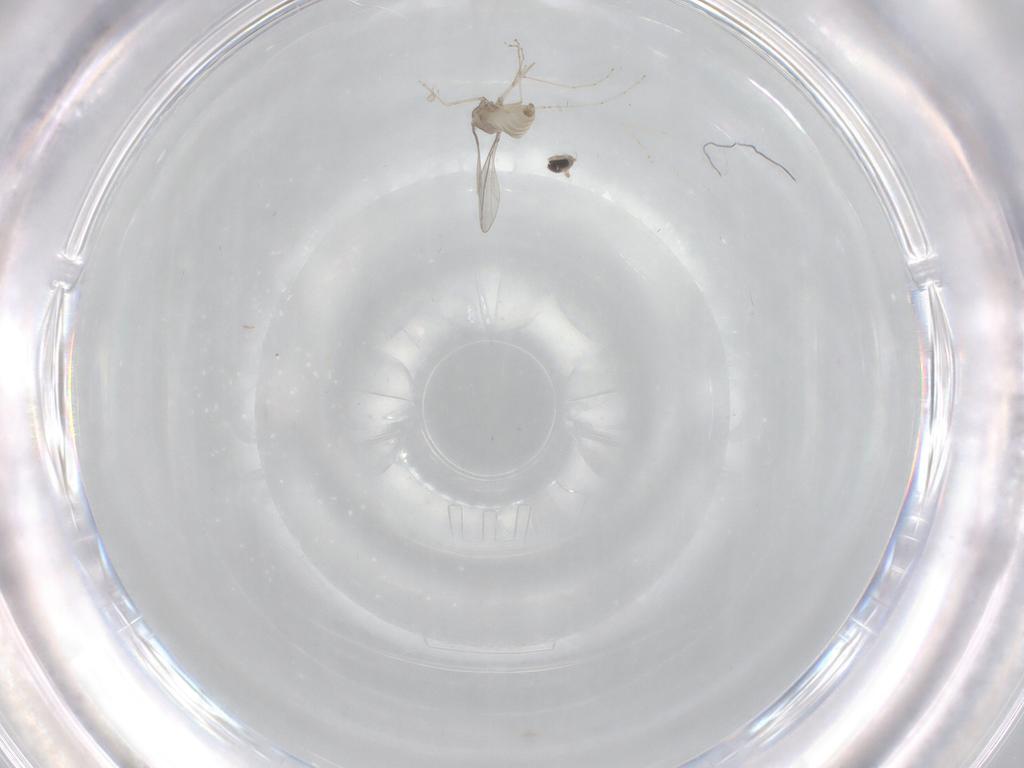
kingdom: Animalia
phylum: Arthropoda
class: Insecta
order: Diptera
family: Cecidomyiidae
